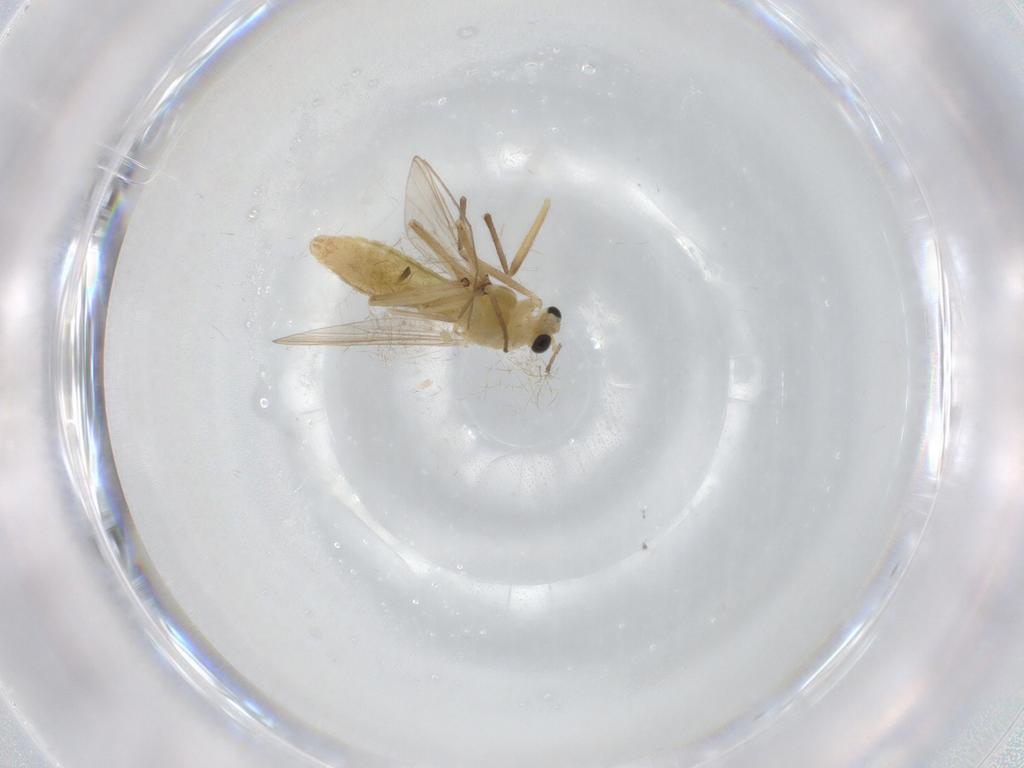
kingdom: Animalia
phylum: Arthropoda
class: Insecta
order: Diptera
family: Chironomidae
